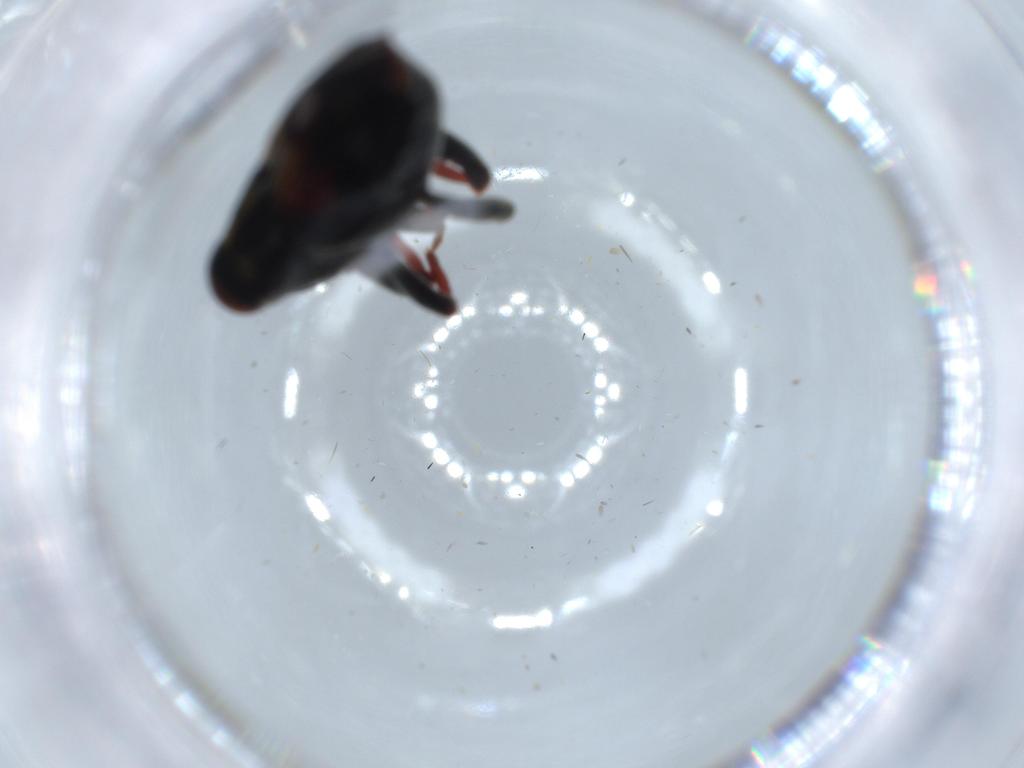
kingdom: Animalia
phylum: Arthropoda
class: Insecta
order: Coleoptera
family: Curculionidae
